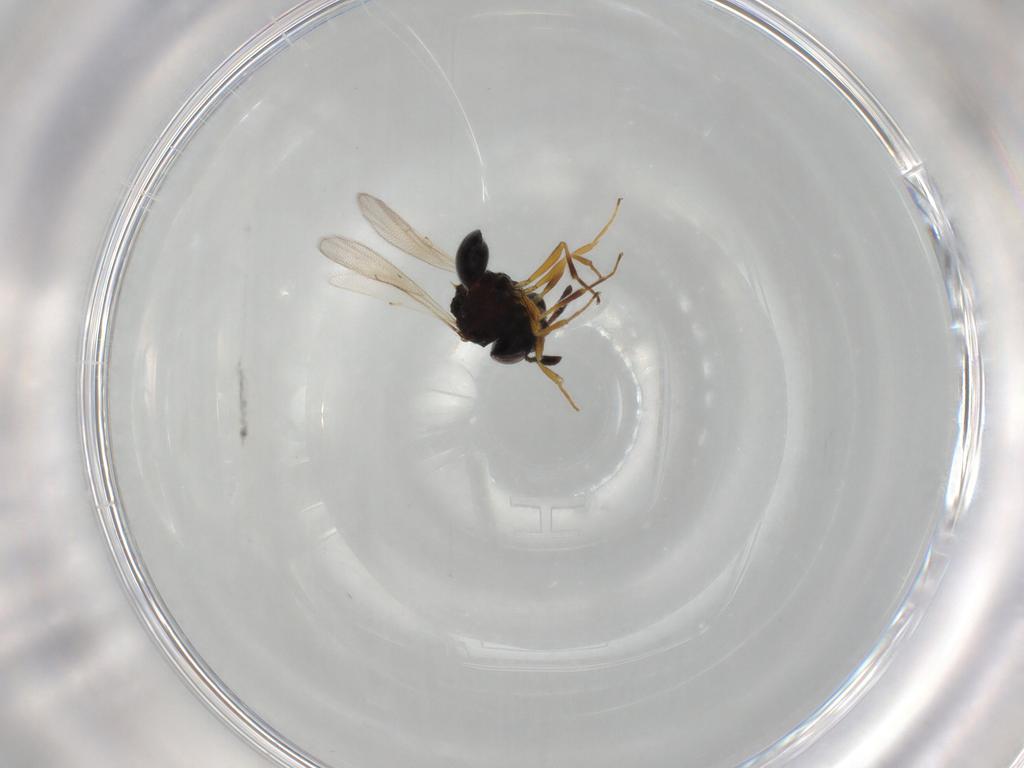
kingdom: Animalia
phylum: Arthropoda
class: Insecta
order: Hymenoptera
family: Scelionidae
